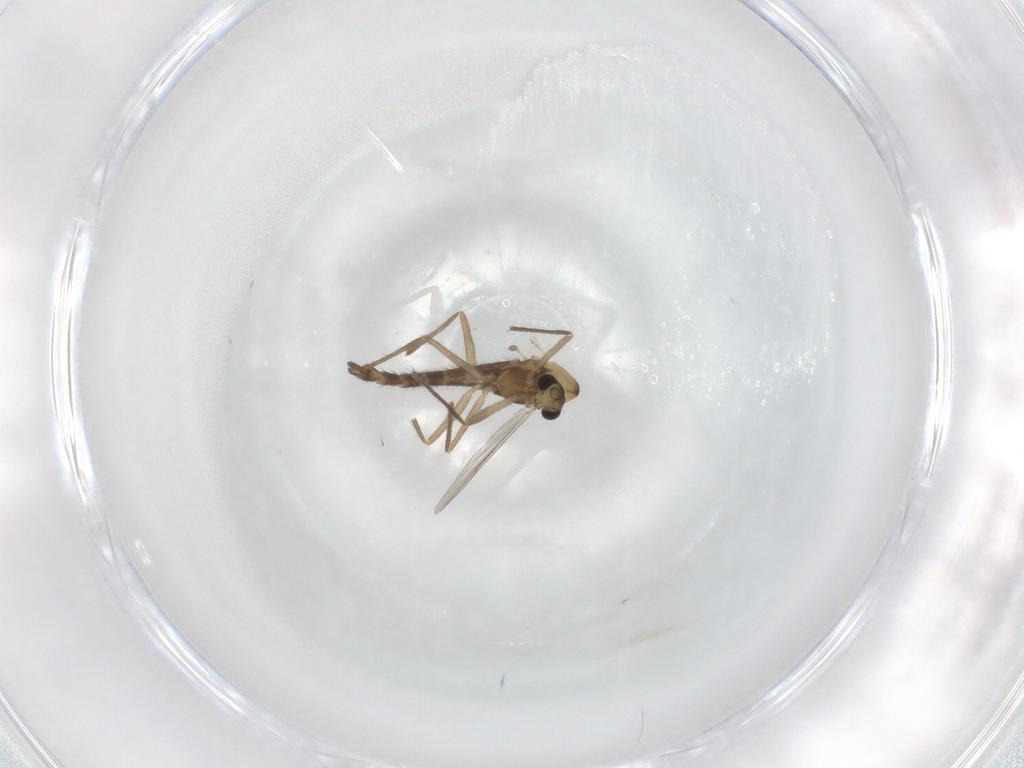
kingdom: Animalia
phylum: Arthropoda
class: Insecta
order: Diptera
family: Chironomidae
